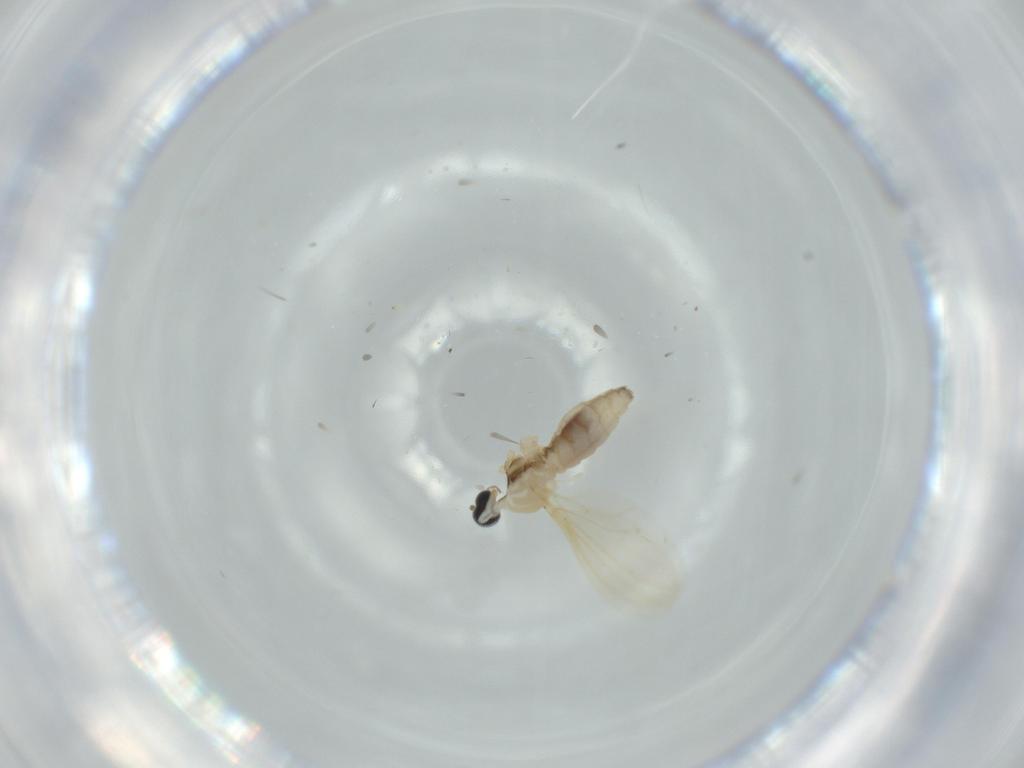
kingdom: Animalia
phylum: Arthropoda
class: Insecta
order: Diptera
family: Cecidomyiidae
